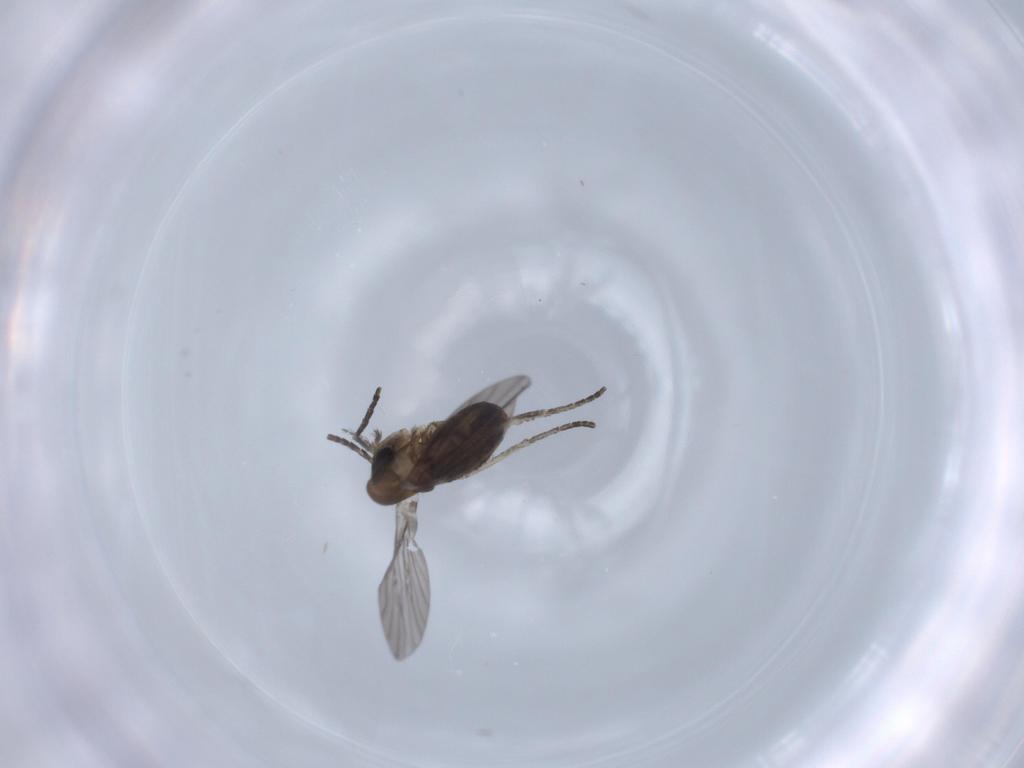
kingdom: Animalia
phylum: Arthropoda
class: Insecta
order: Diptera
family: Psychodidae
